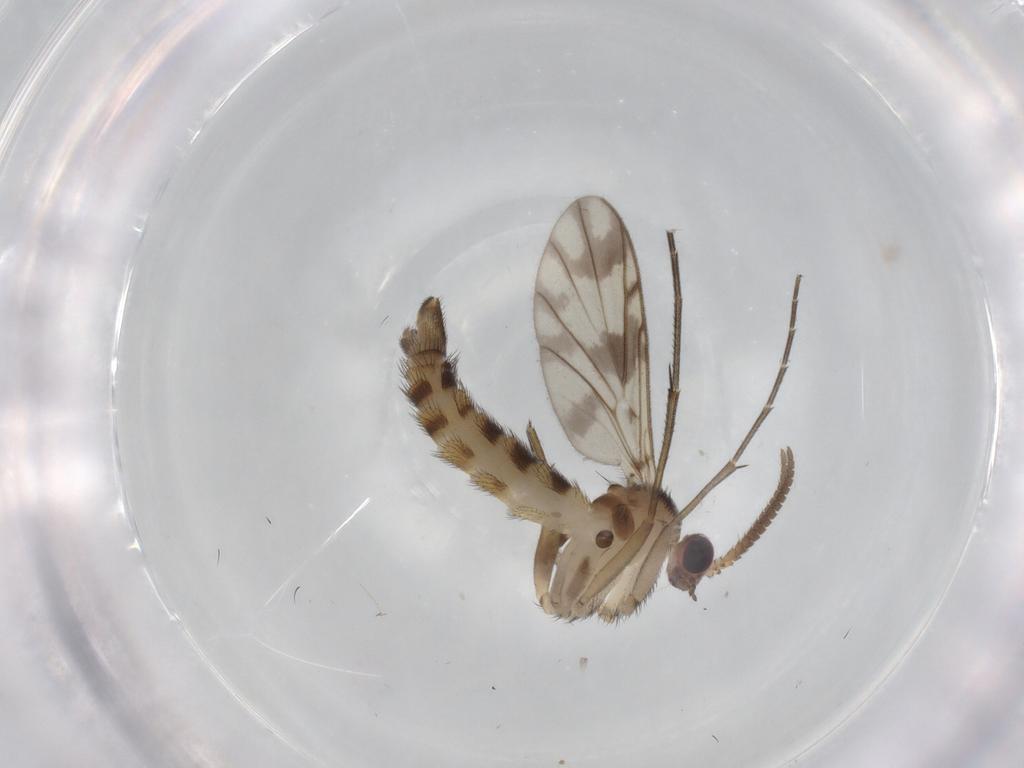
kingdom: Animalia
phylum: Arthropoda
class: Insecta
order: Diptera
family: Keroplatidae
